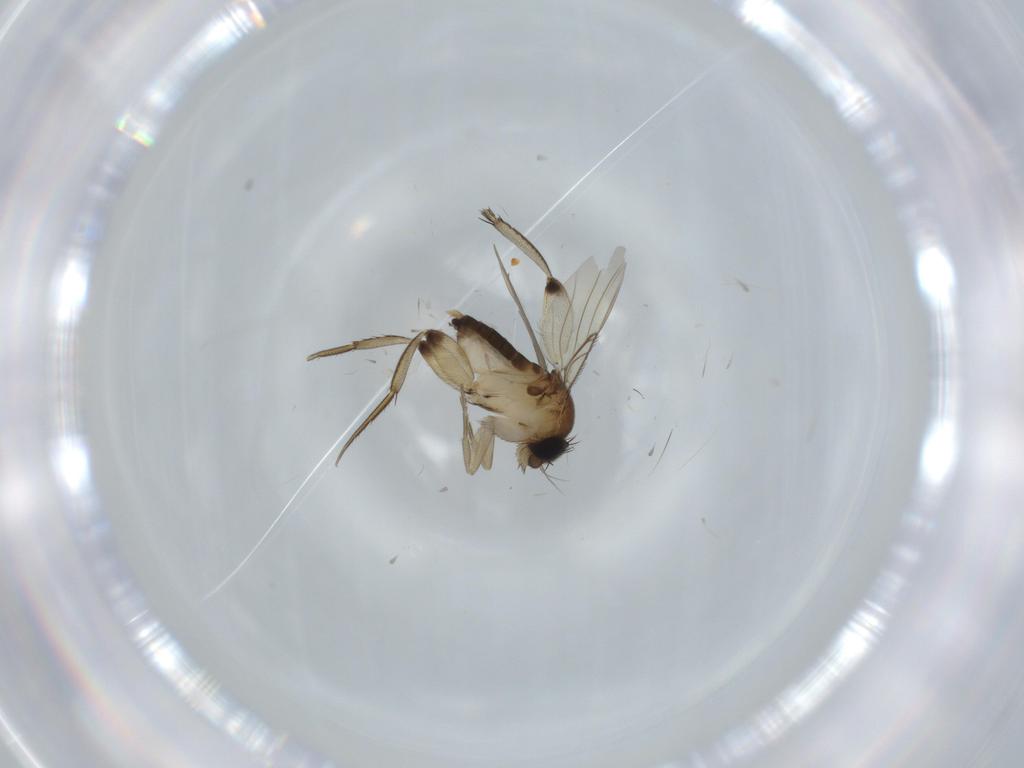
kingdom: Animalia
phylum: Arthropoda
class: Insecta
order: Diptera
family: Phoridae
